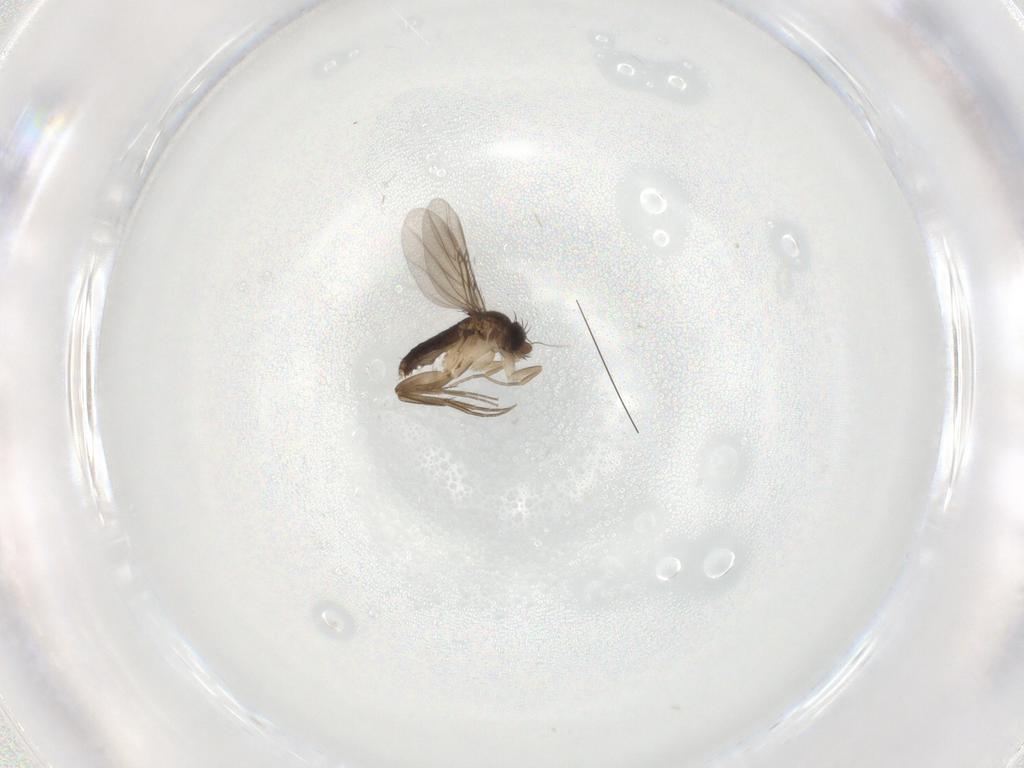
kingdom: Animalia
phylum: Arthropoda
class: Insecta
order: Diptera
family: Phoridae
